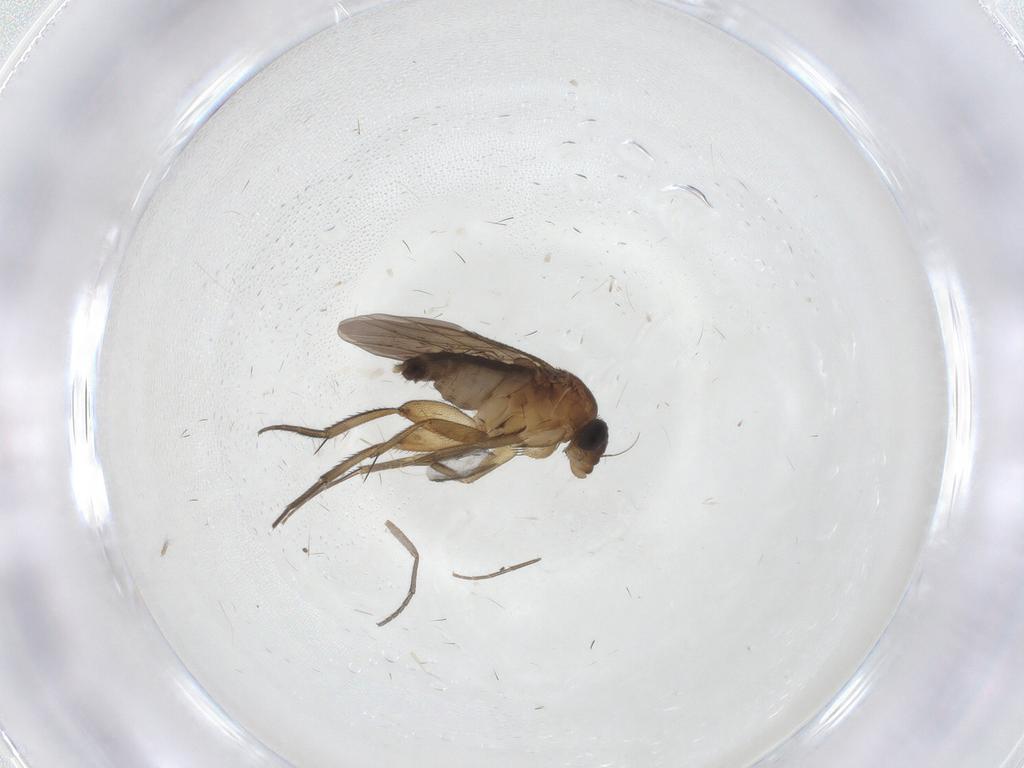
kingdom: Animalia
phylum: Arthropoda
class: Insecta
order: Diptera
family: Phoridae
